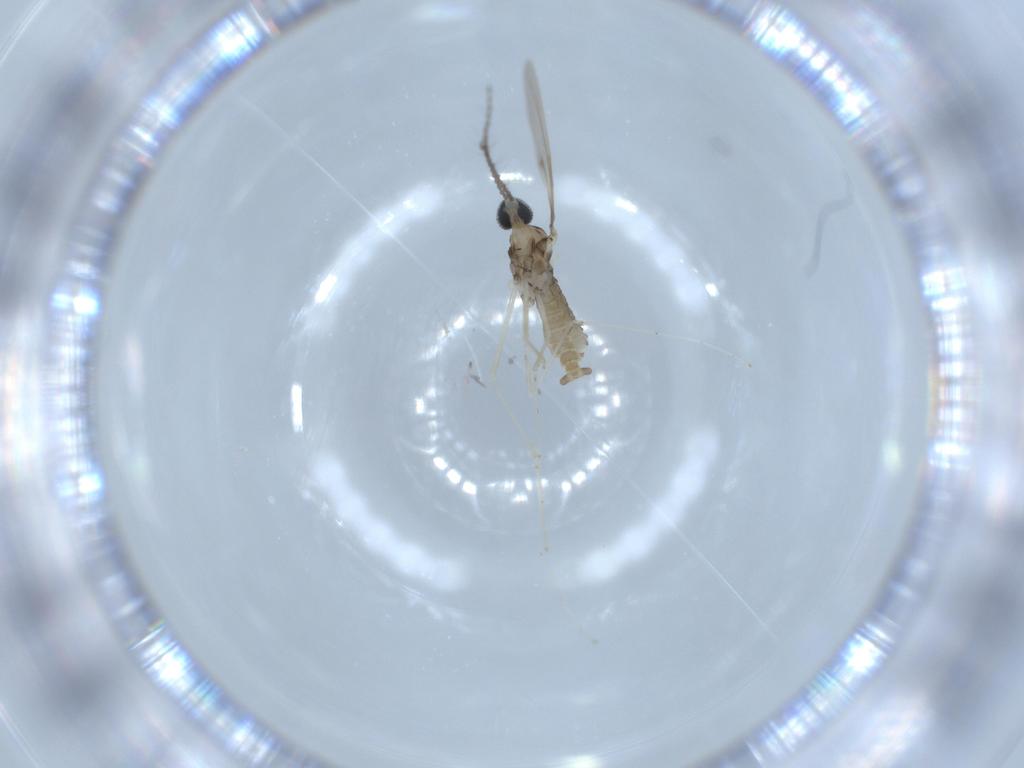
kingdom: Animalia
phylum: Arthropoda
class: Insecta
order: Diptera
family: Cecidomyiidae
